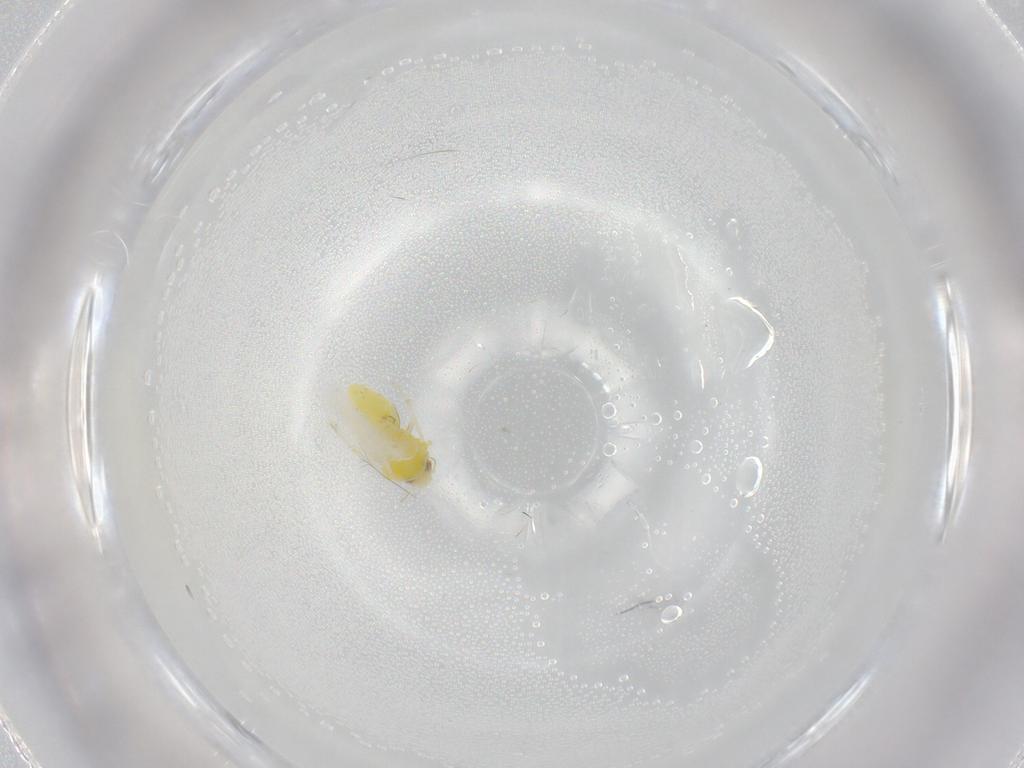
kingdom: Animalia
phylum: Arthropoda
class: Insecta
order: Hemiptera
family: Aleyrodidae
